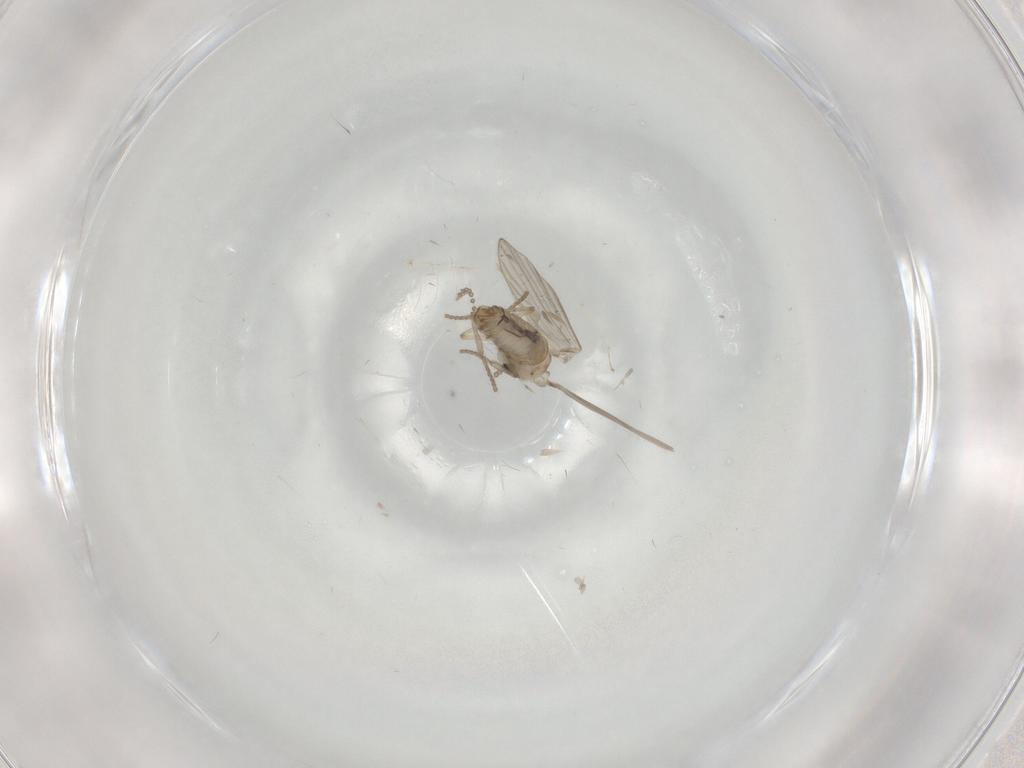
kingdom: Animalia
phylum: Arthropoda
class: Insecta
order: Diptera
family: Psychodidae
